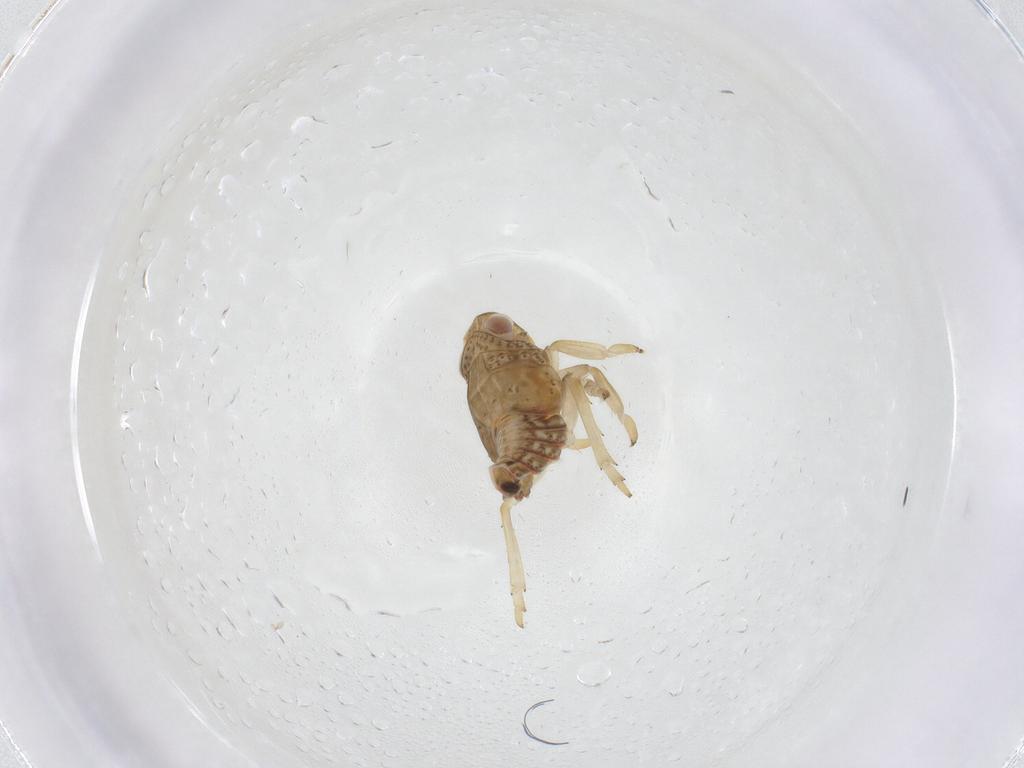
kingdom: Animalia
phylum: Arthropoda
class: Insecta
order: Hemiptera
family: Issidae
